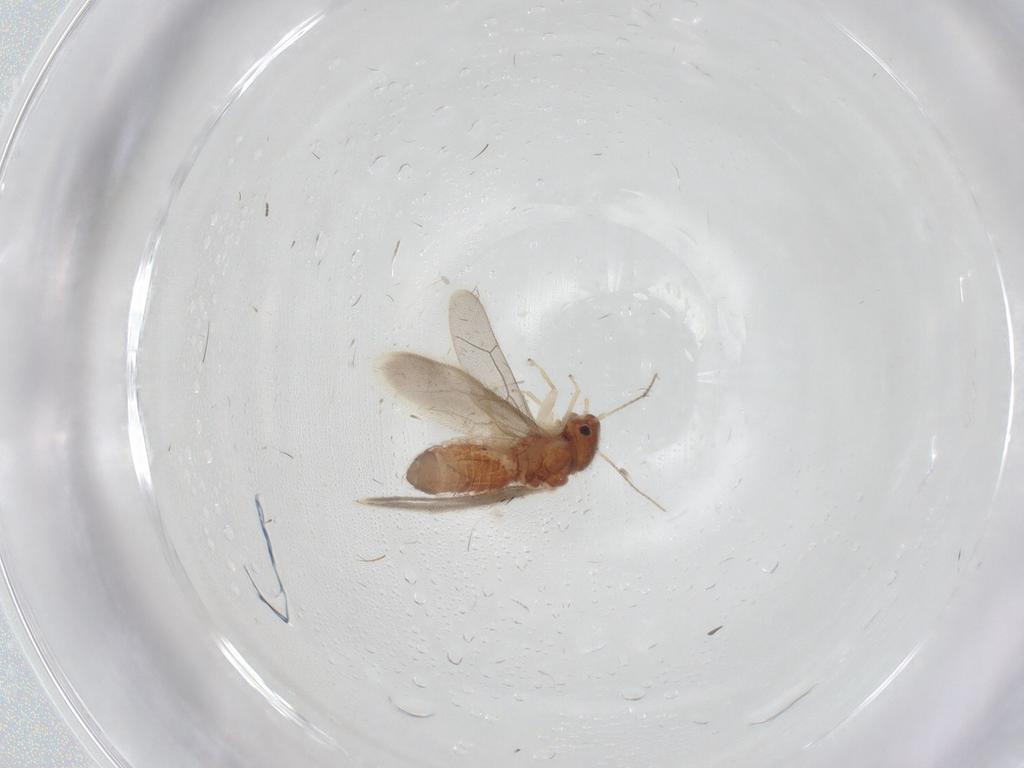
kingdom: Animalia
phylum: Arthropoda
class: Insecta
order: Psocodea
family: Archipsocidae
